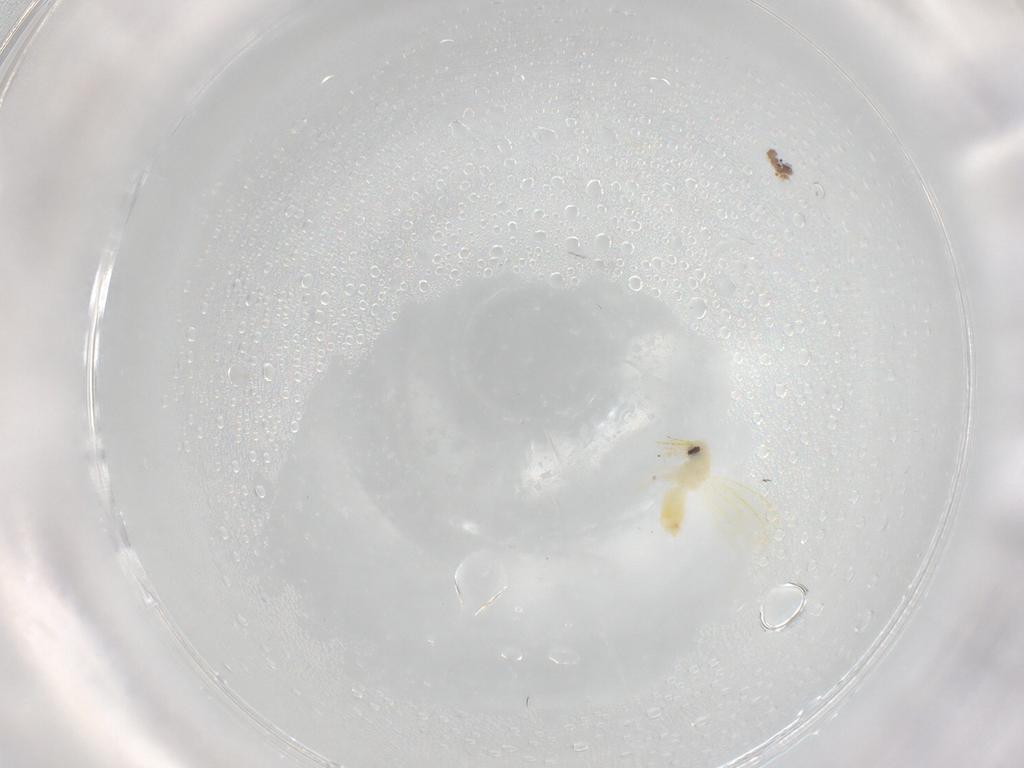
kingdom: Animalia
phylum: Arthropoda
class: Insecta
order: Hemiptera
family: Aleyrodidae
